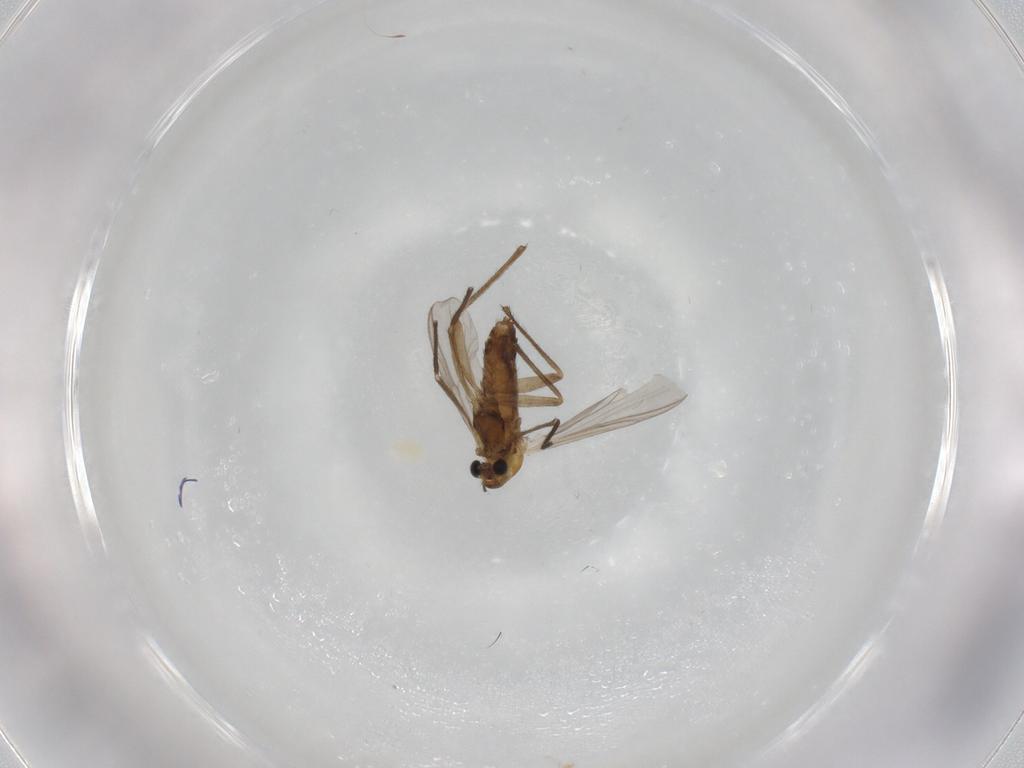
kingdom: Animalia
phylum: Arthropoda
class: Insecta
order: Diptera
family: Chironomidae
